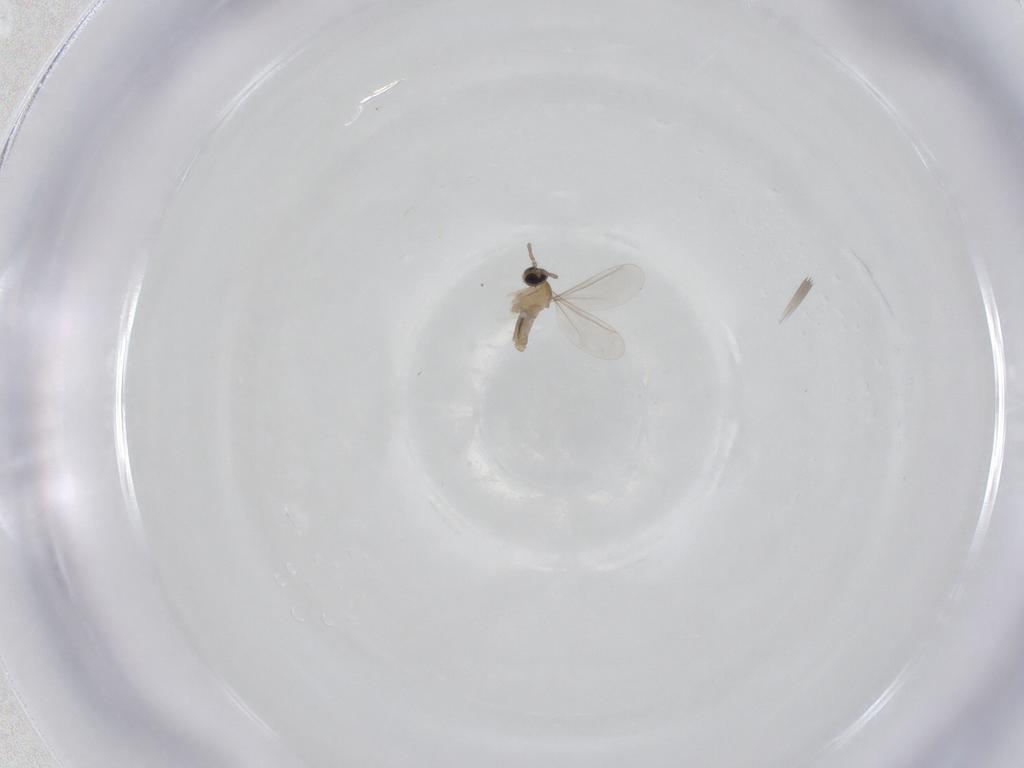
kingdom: Animalia
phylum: Arthropoda
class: Insecta
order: Diptera
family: Cecidomyiidae
